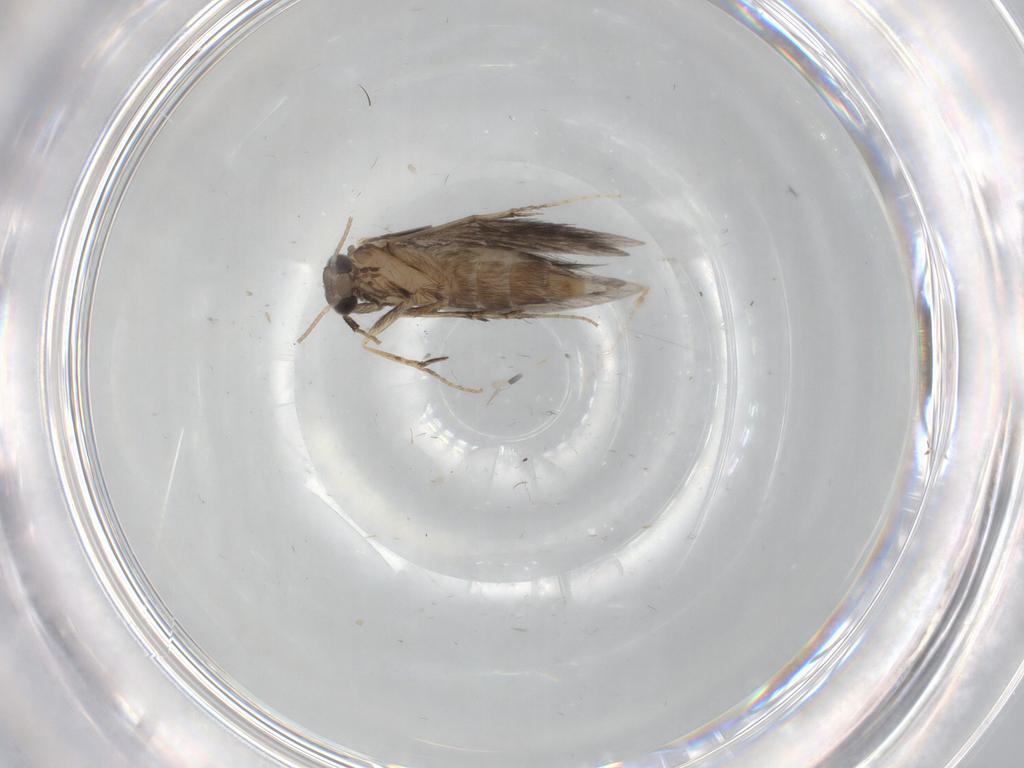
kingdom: Animalia
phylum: Arthropoda
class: Insecta
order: Trichoptera
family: Hydroptilidae
